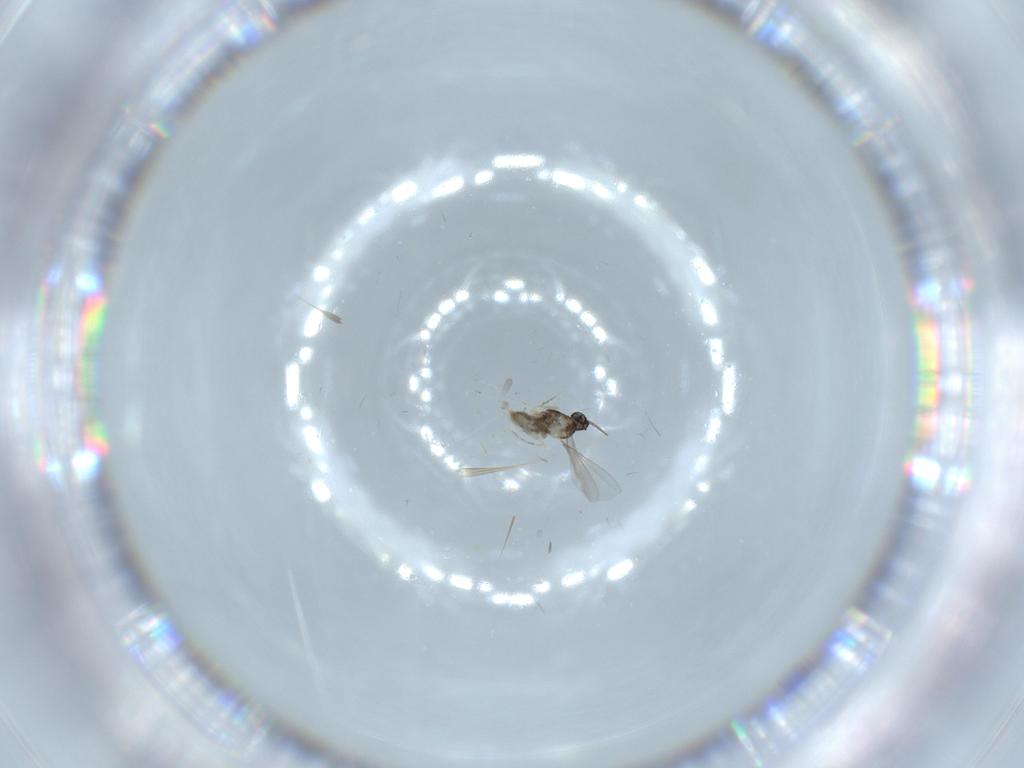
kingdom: Animalia
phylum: Arthropoda
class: Insecta
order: Diptera
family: Sciaridae
